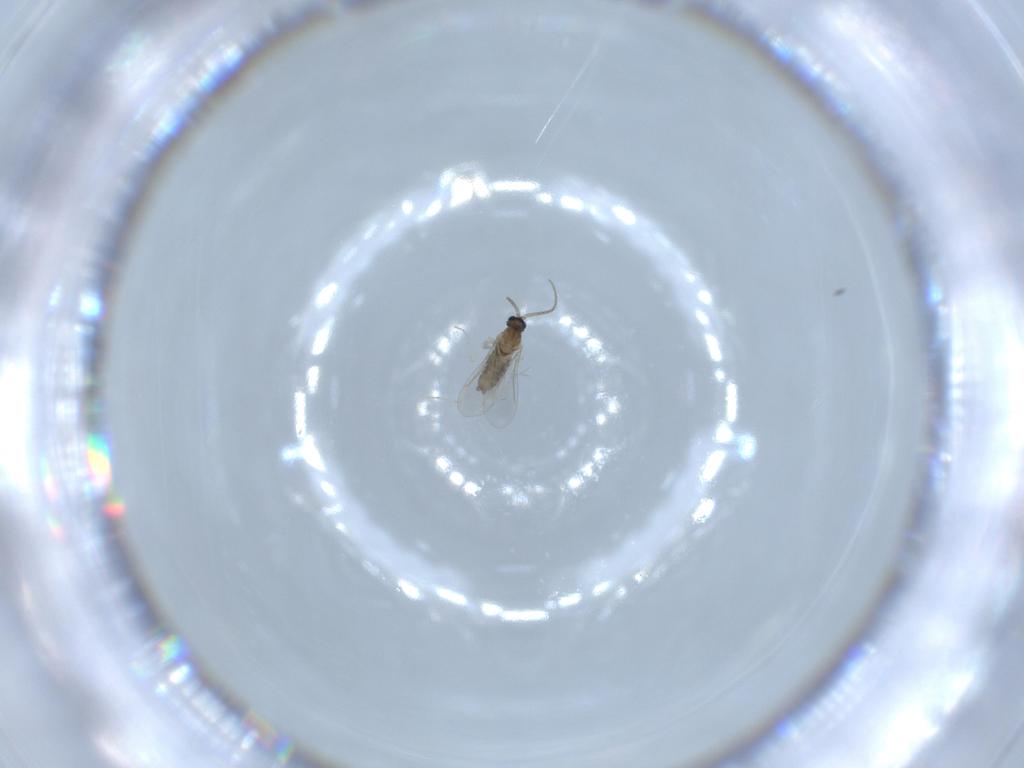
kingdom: Animalia
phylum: Arthropoda
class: Insecta
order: Diptera
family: Cecidomyiidae
